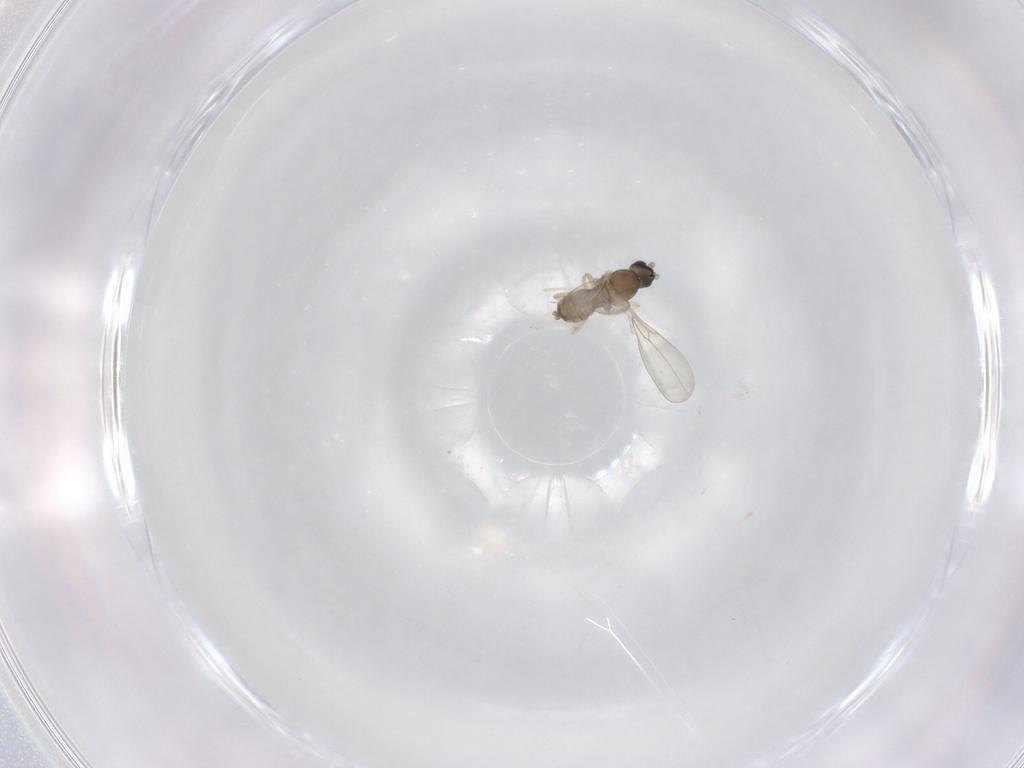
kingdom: Animalia
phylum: Arthropoda
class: Insecta
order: Diptera
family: Cecidomyiidae
